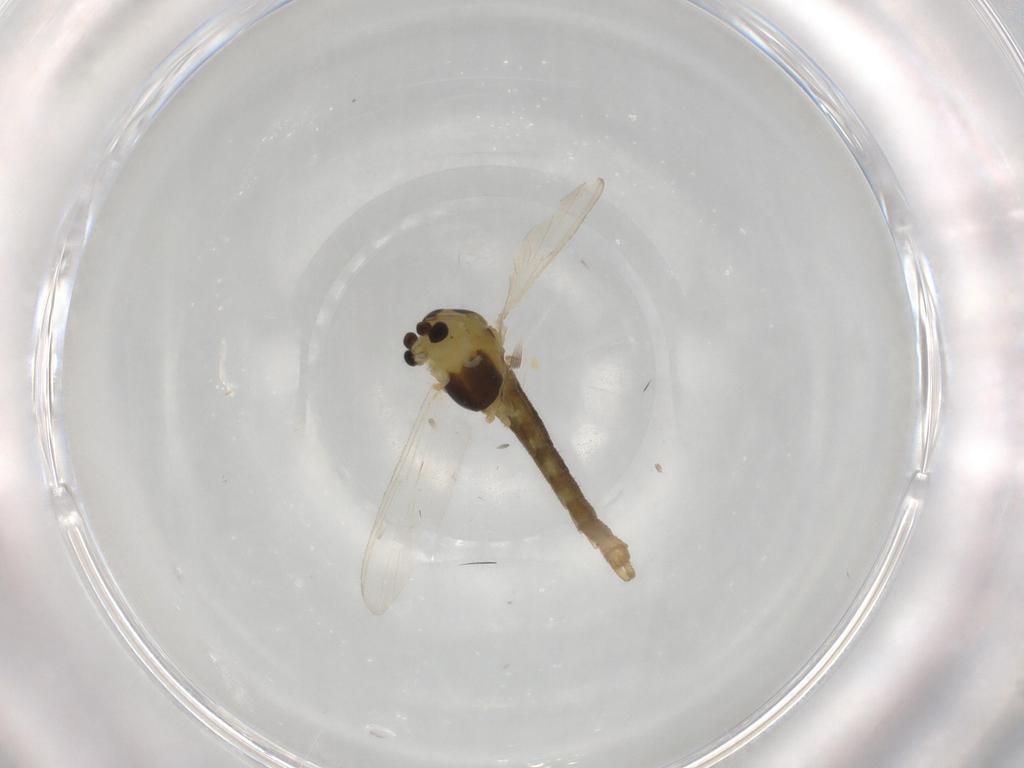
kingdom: Animalia
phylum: Arthropoda
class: Insecta
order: Diptera
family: Chironomidae
